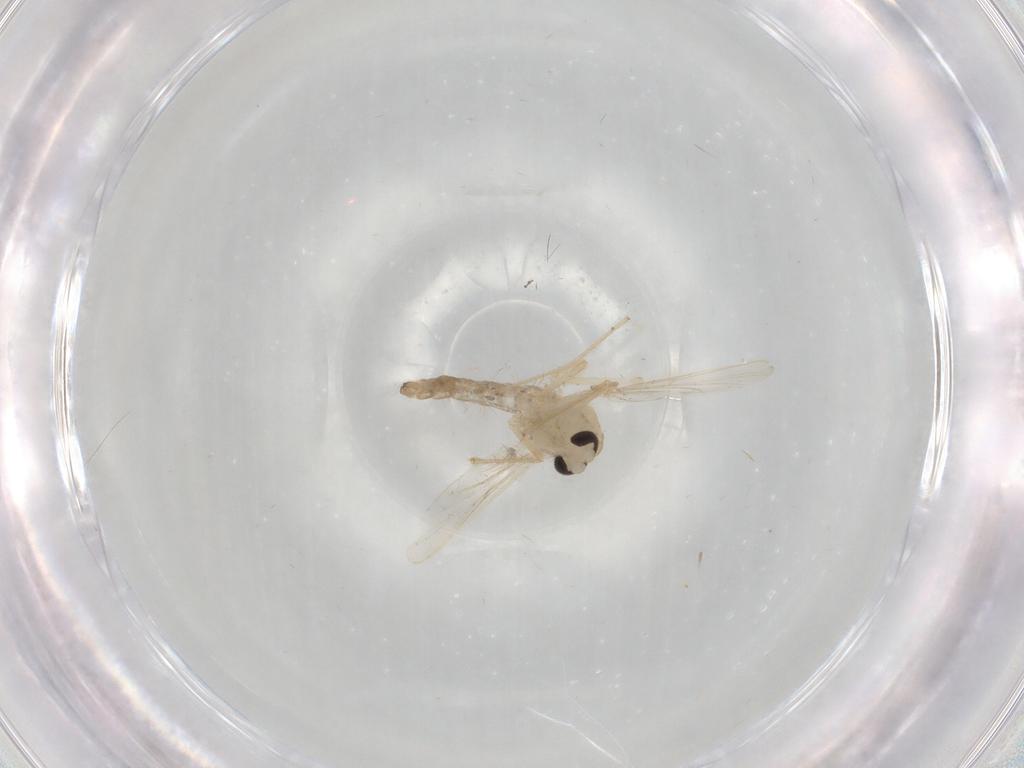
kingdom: Animalia
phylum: Arthropoda
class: Insecta
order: Diptera
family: Chironomidae
